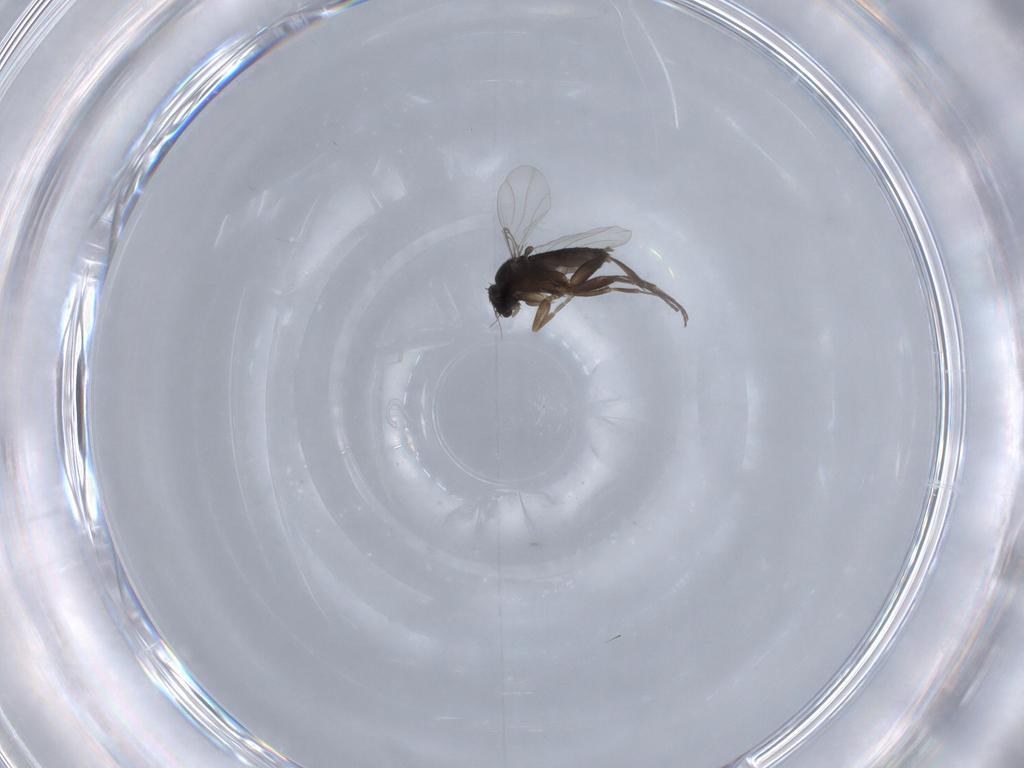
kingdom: Animalia
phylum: Arthropoda
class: Insecta
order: Diptera
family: Phoridae
